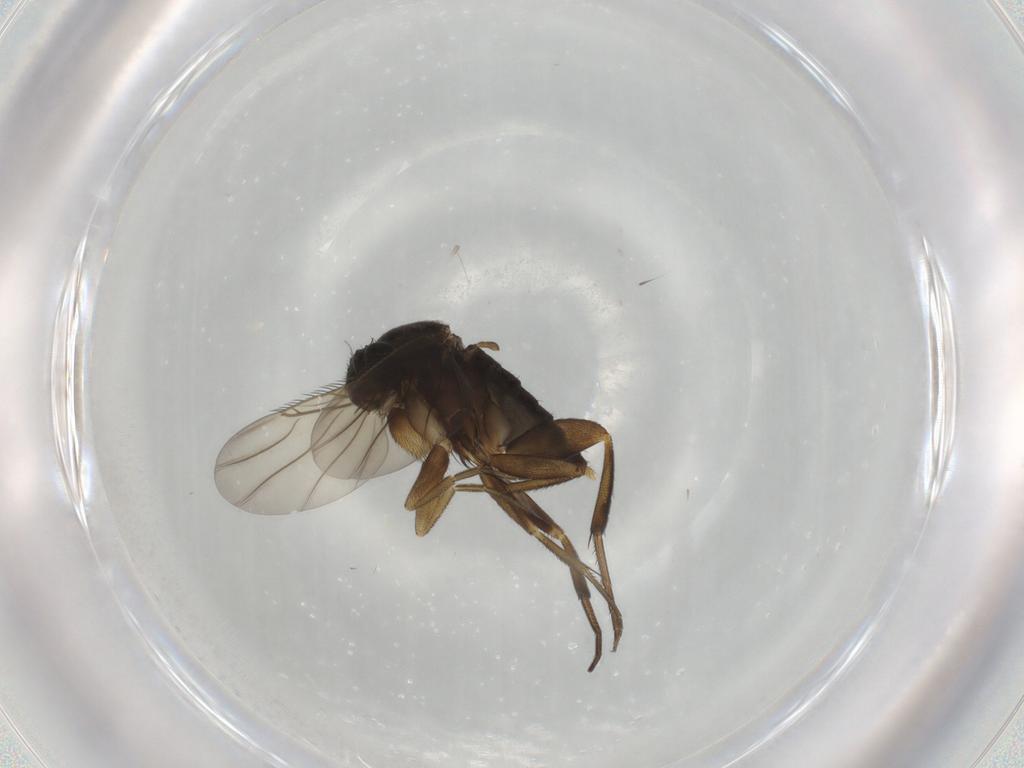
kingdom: Animalia
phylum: Arthropoda
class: Insecta
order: Diptera
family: Phoridae
